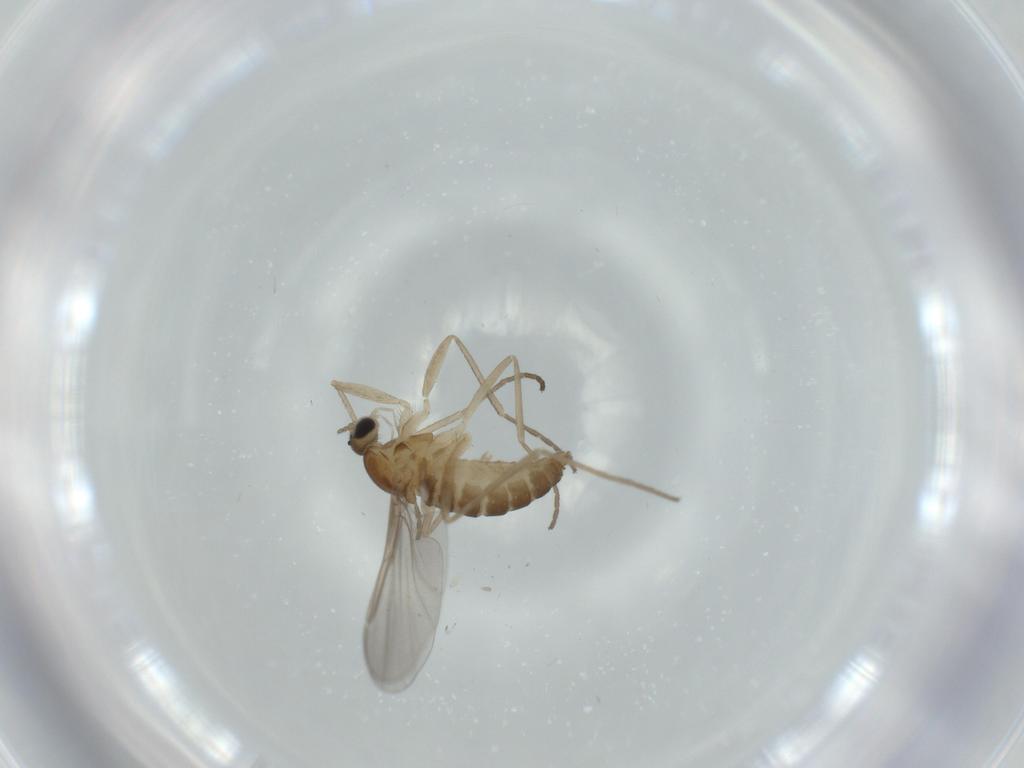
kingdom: Animalia
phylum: Arthropoda
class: Insecta
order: Diptera
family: Cecidomyiidae
